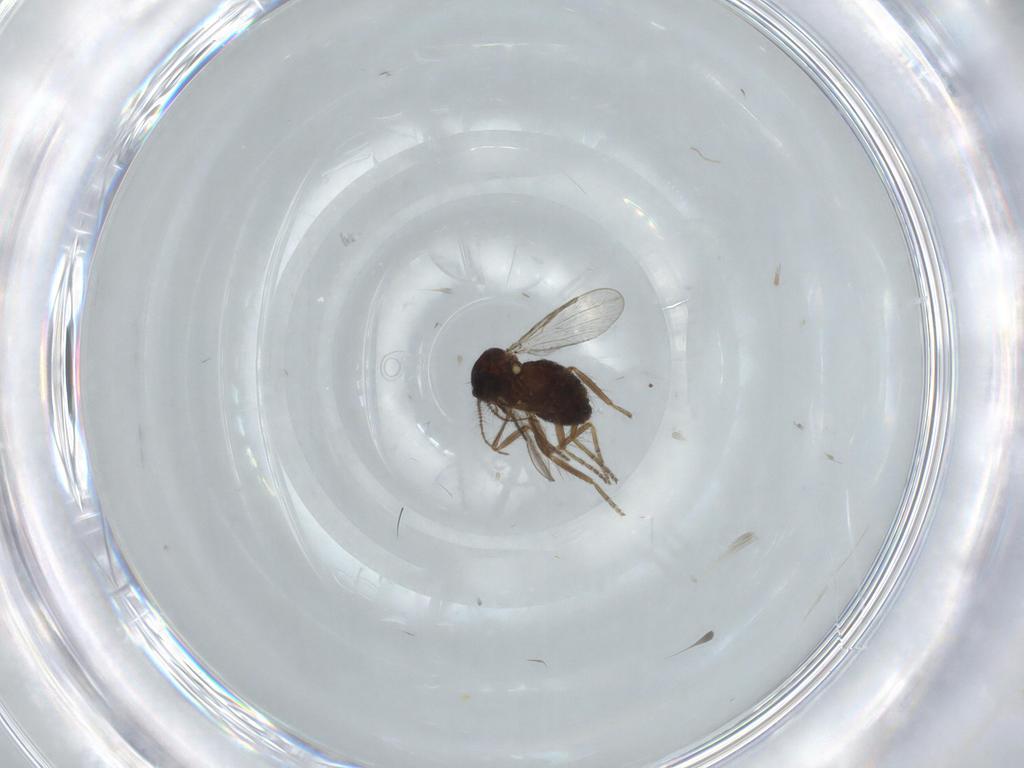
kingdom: Animalia
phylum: Arthropoda
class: Insecta
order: Diptera
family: Ceratopogonidae
